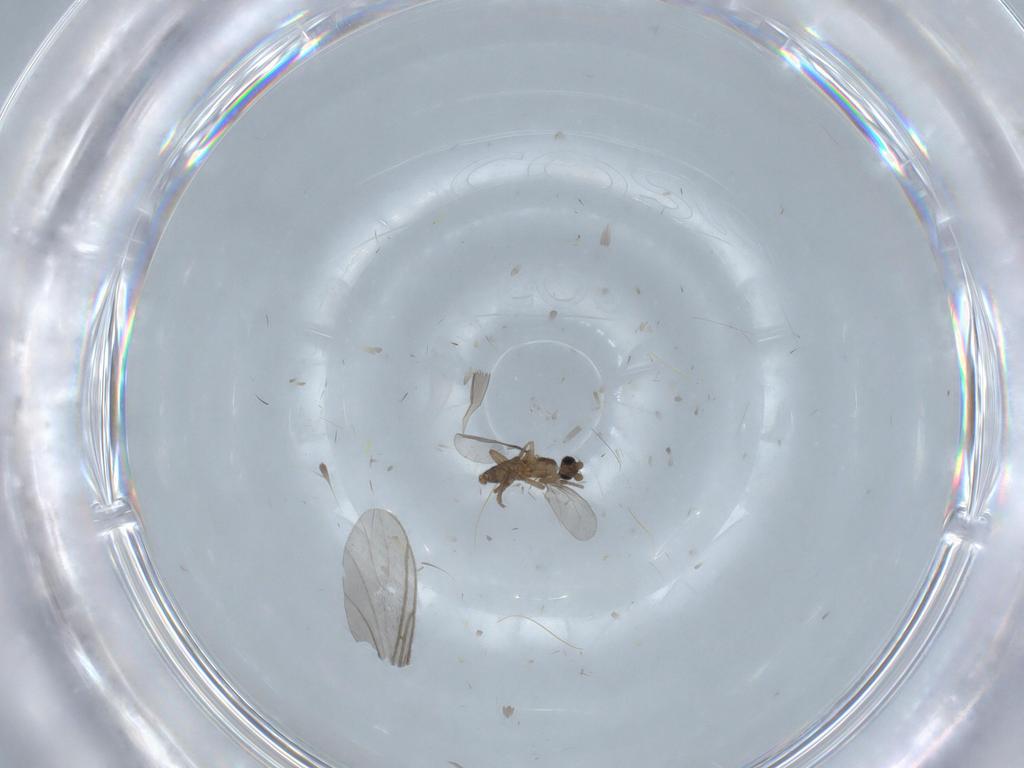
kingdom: Animalia
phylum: Arthropoda
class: Insecta
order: Diptera
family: Phoridae
